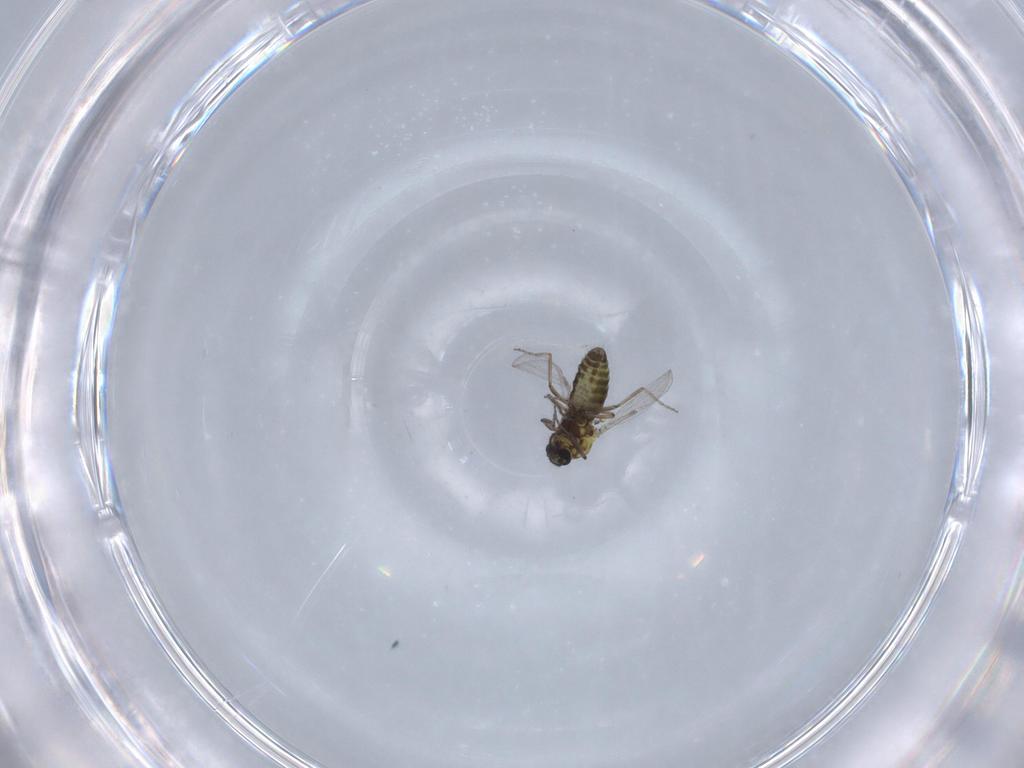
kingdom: Animalia
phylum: Arthropoda
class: Insecta
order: Diptera
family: Ceratopogonidae
